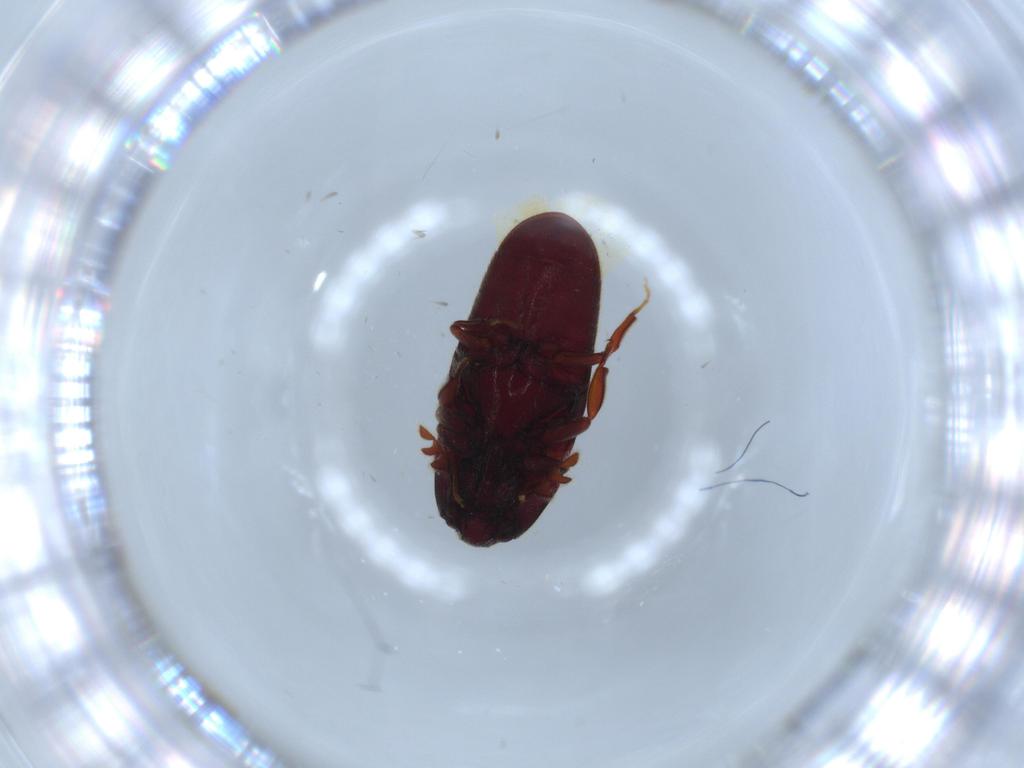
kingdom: Animalia
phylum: Arthropoda
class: Insecta
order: Coleoptera
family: Throscidae
